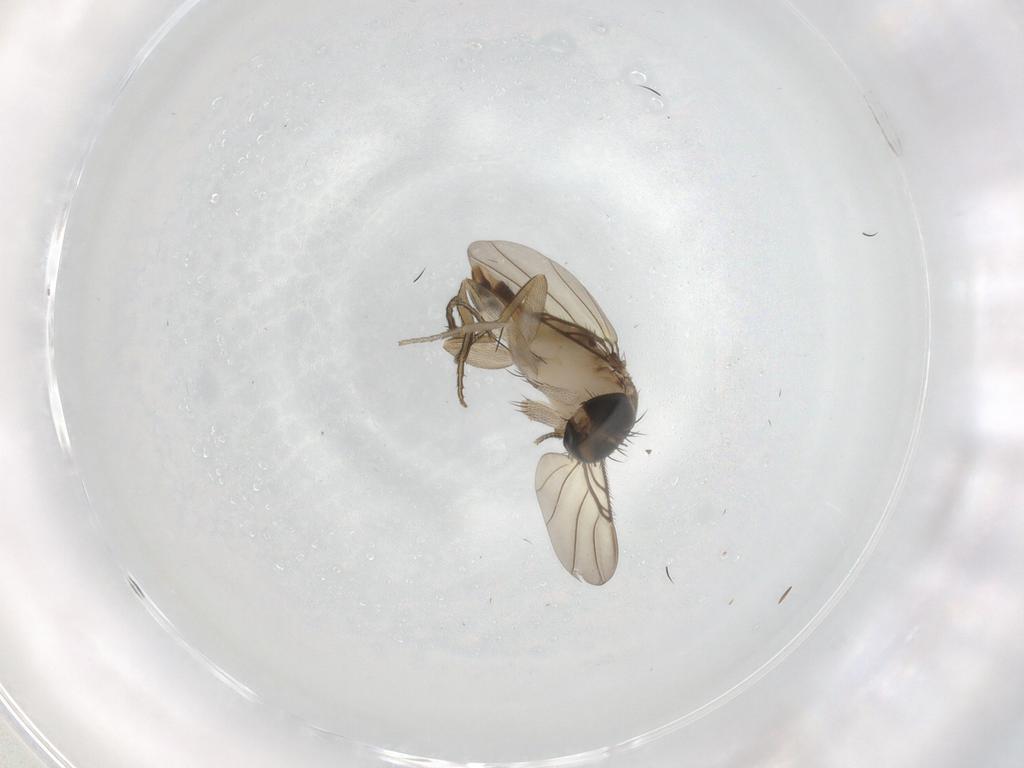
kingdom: Animalia
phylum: Arthropoda
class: Insecta
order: Diptera
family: Phoridae
